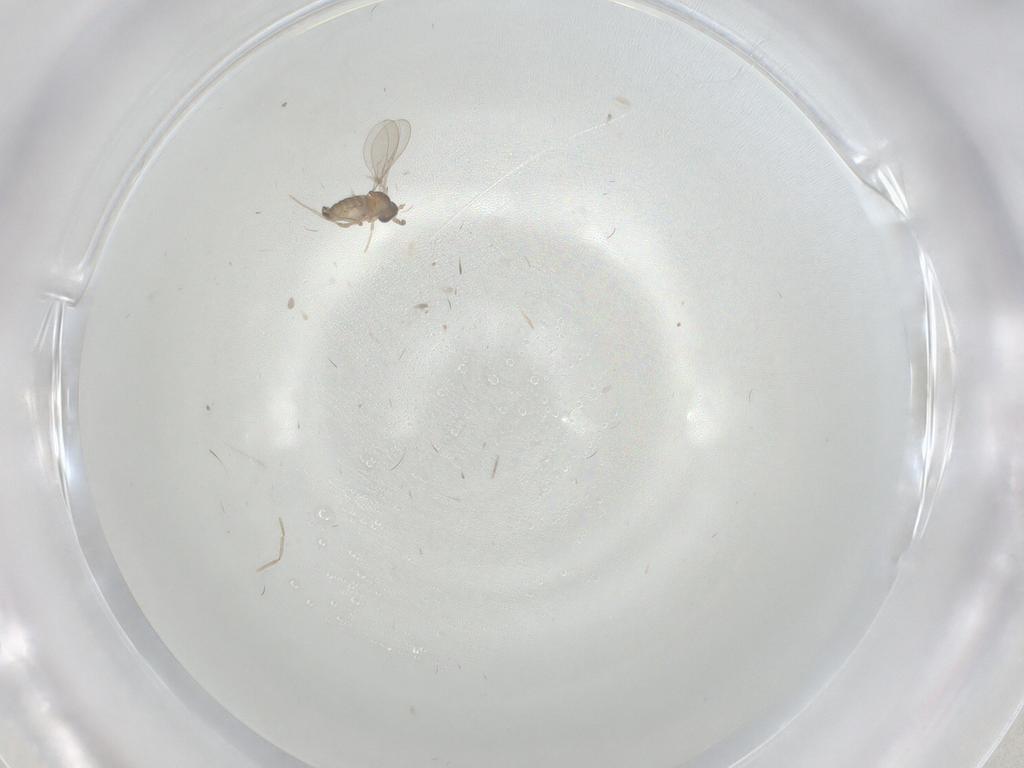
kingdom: Animalia
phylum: Arthropoda
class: Insecta
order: Diptera
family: Cecidomyiidae
